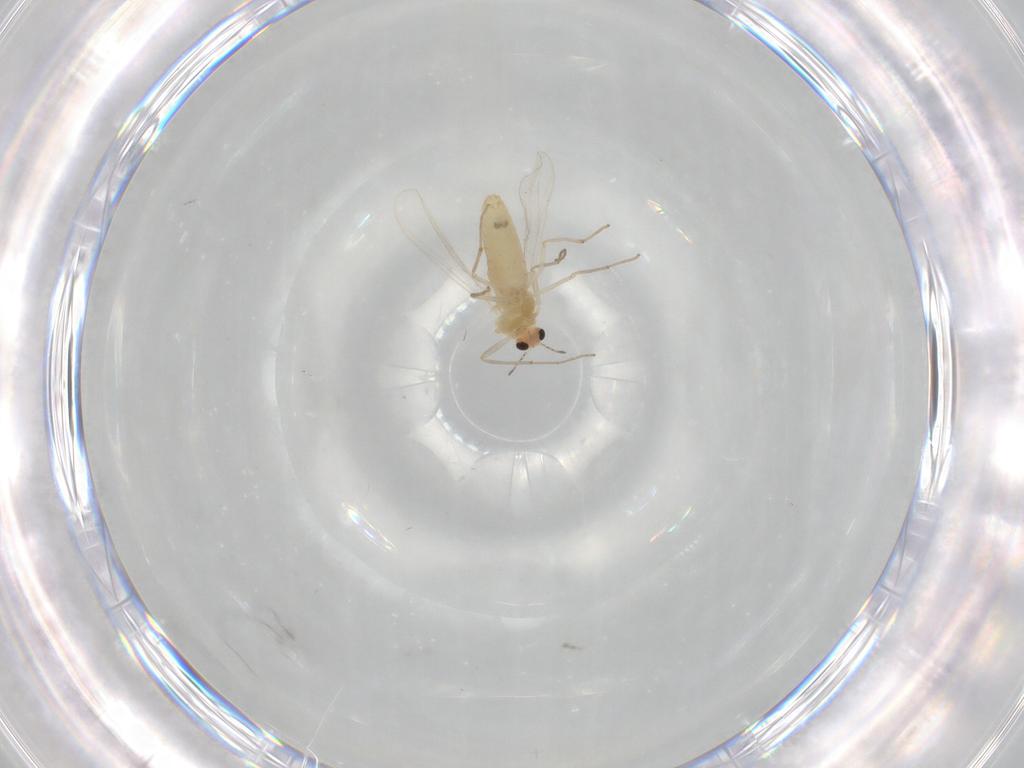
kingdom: Animalia
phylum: Arthropoda
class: Insecta
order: Diptera
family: Chironomidae
